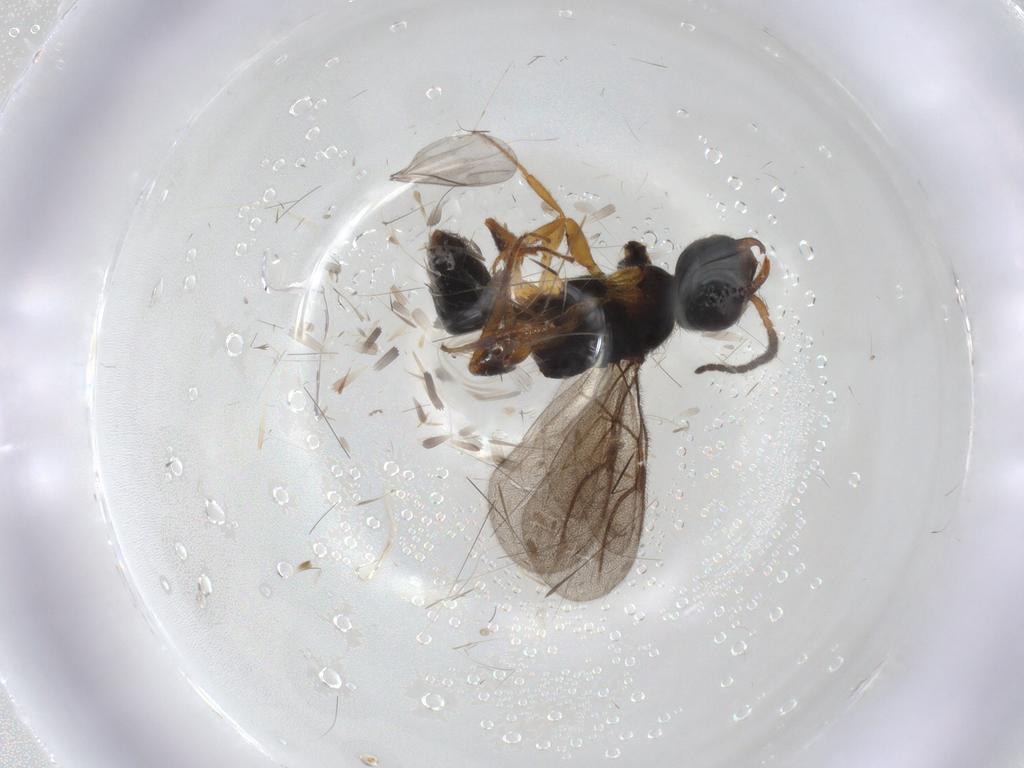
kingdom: Animalia
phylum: Arthropoda
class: Insecta
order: Hymenoptera
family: Bethylidae
